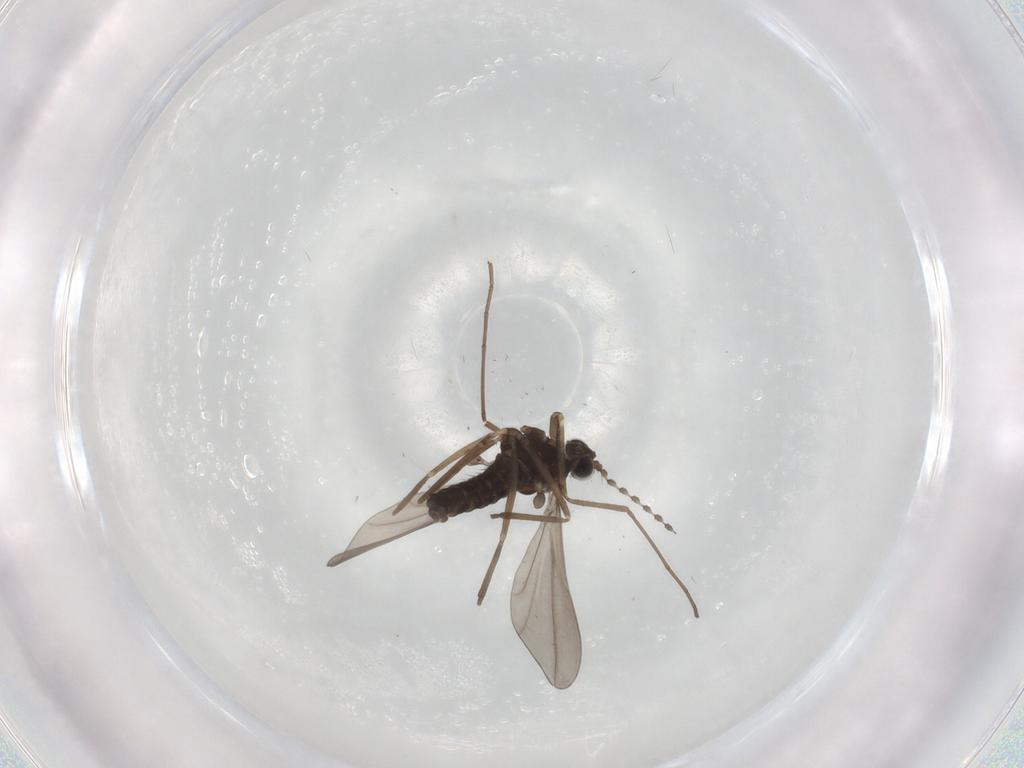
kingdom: Animalia
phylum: Arthropoda
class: Insecta
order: Diptera
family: Cecidomyiidae
